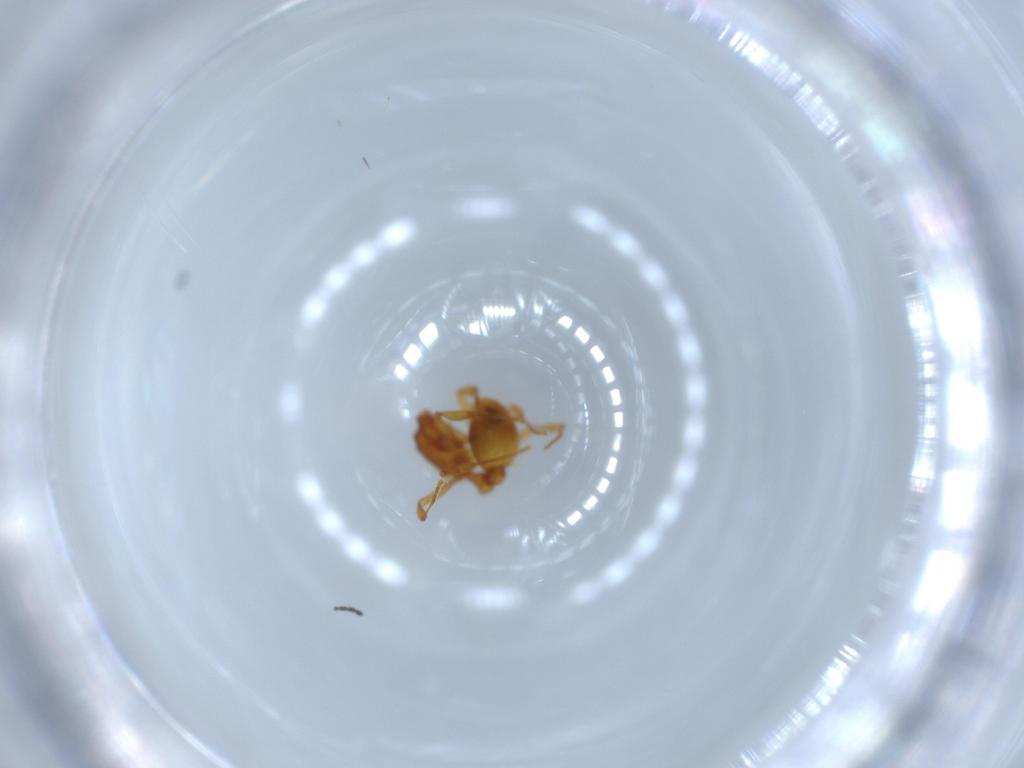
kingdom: Animalia
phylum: Arthropoda
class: Insecta
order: Hymenoptera
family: Formicidae
